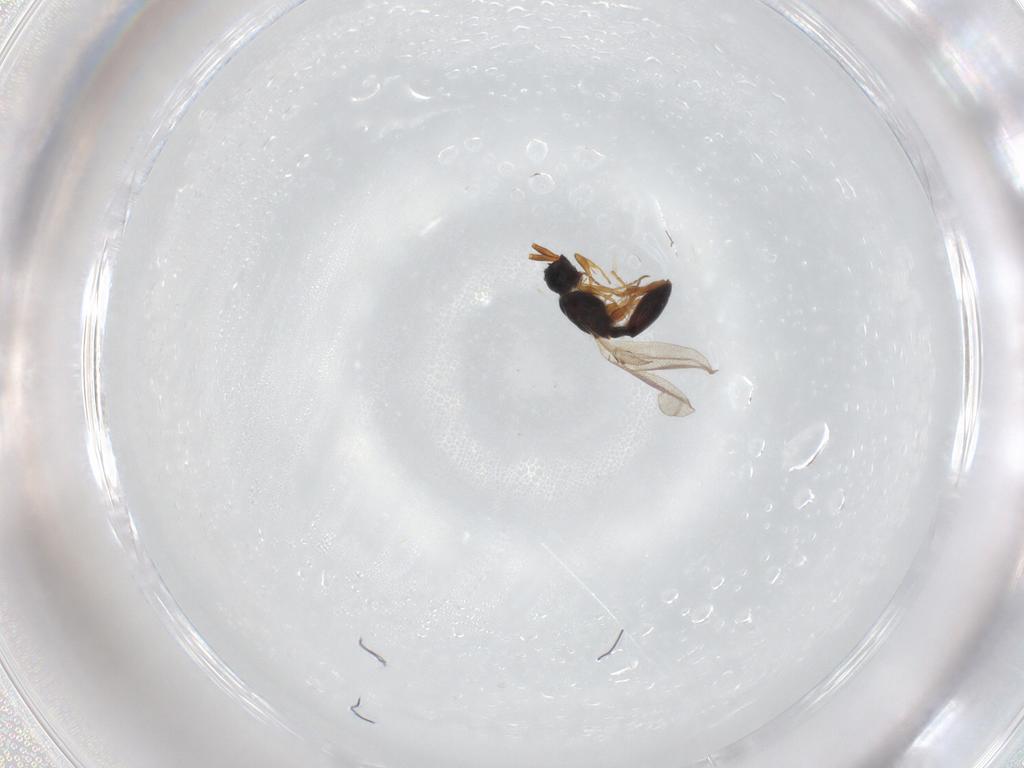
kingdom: Animalia
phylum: Arthropoda
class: Insecta
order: Hymenoptera
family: Diapriidae
